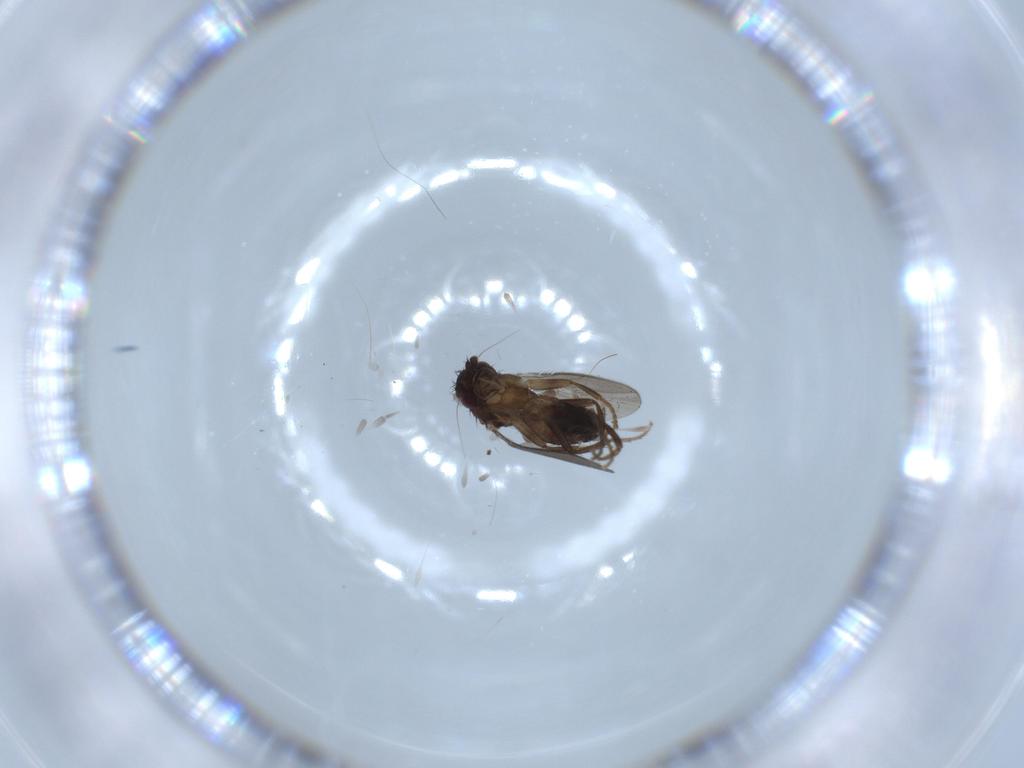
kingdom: Animalia
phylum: Arthropoda
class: Insecta
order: Diptera
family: Sphaeroceridae
